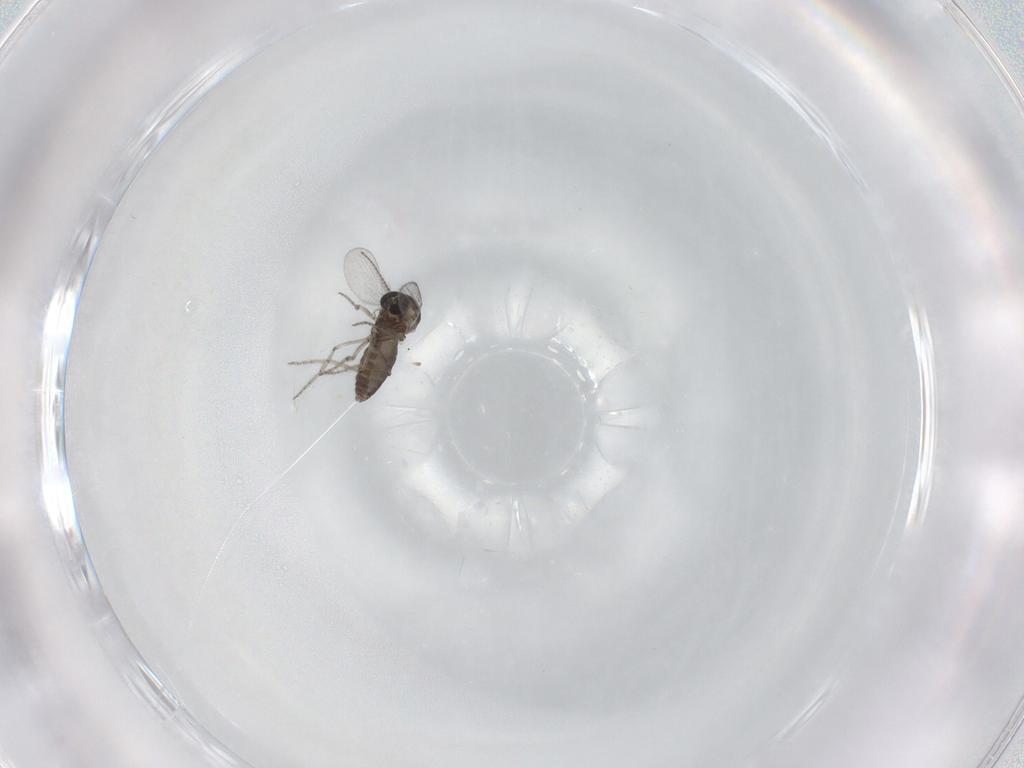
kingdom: Animalia
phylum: Arthropoda
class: Insecta
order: Diptera
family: Ceratopogonidae
